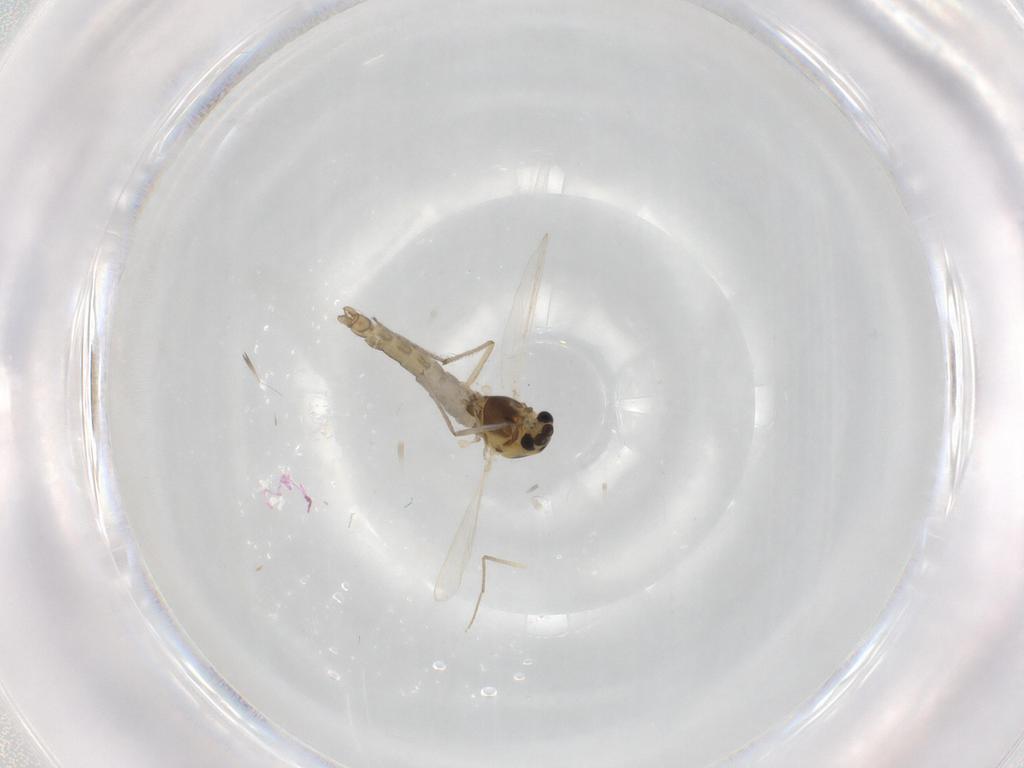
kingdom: Animalia
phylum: Arthropoda
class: Insecta
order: Diptera
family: Chironomidae
